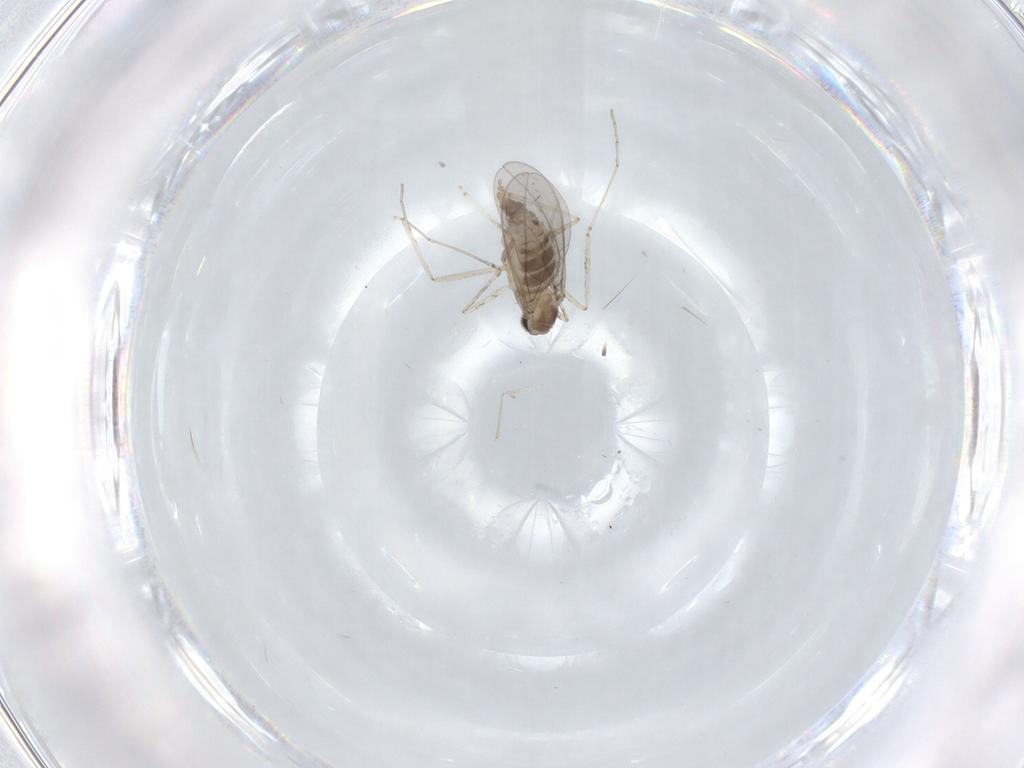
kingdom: Animalia
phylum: Arthropoda
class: Insecta
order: Diptera
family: Cecidomyiidae
